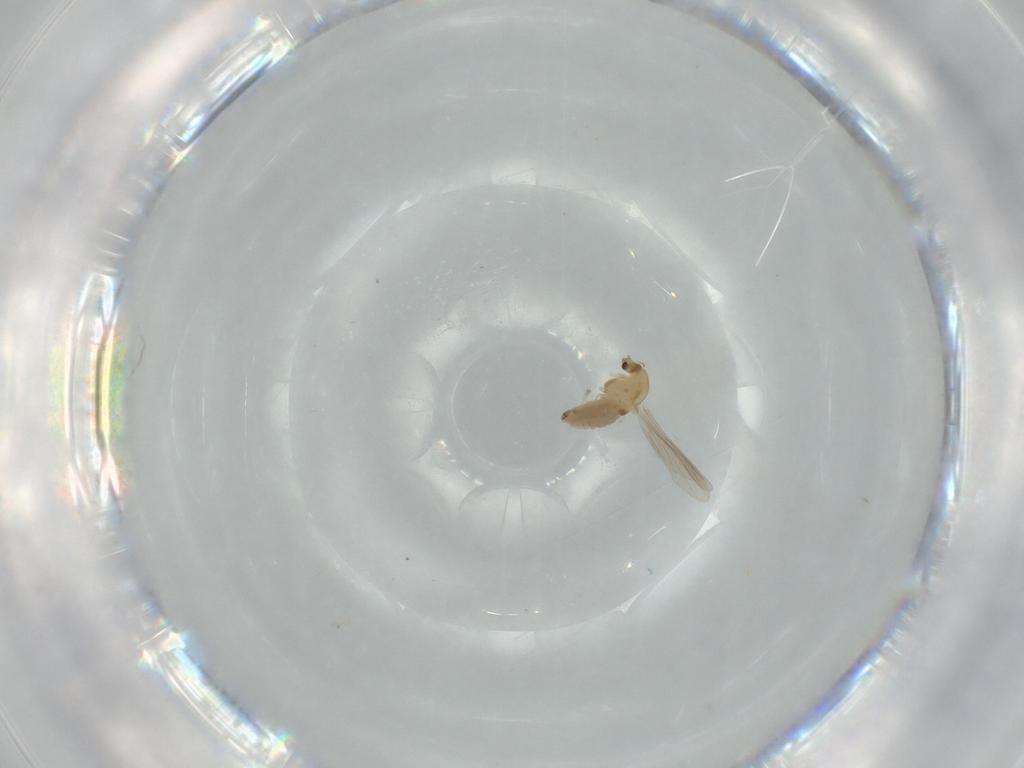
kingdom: Animalia
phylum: Arthropoda
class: Insecta
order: Diptera
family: Chironomidae
